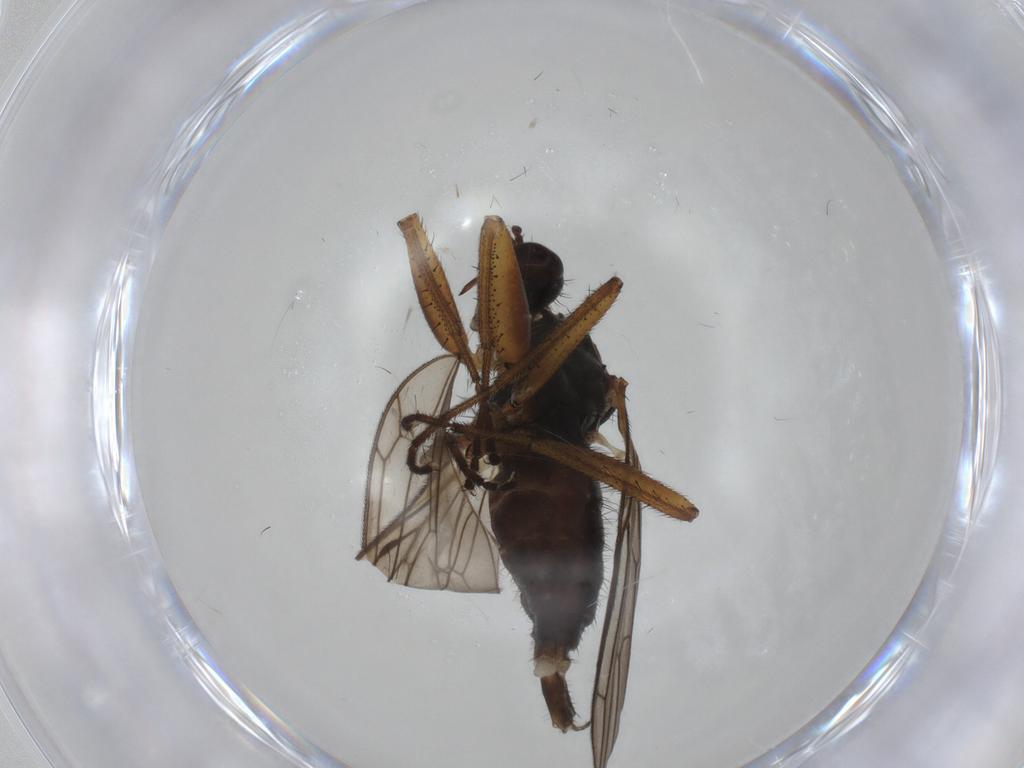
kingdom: Animalia
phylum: Arthropoda
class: Insecta
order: Diptera
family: Empididae
